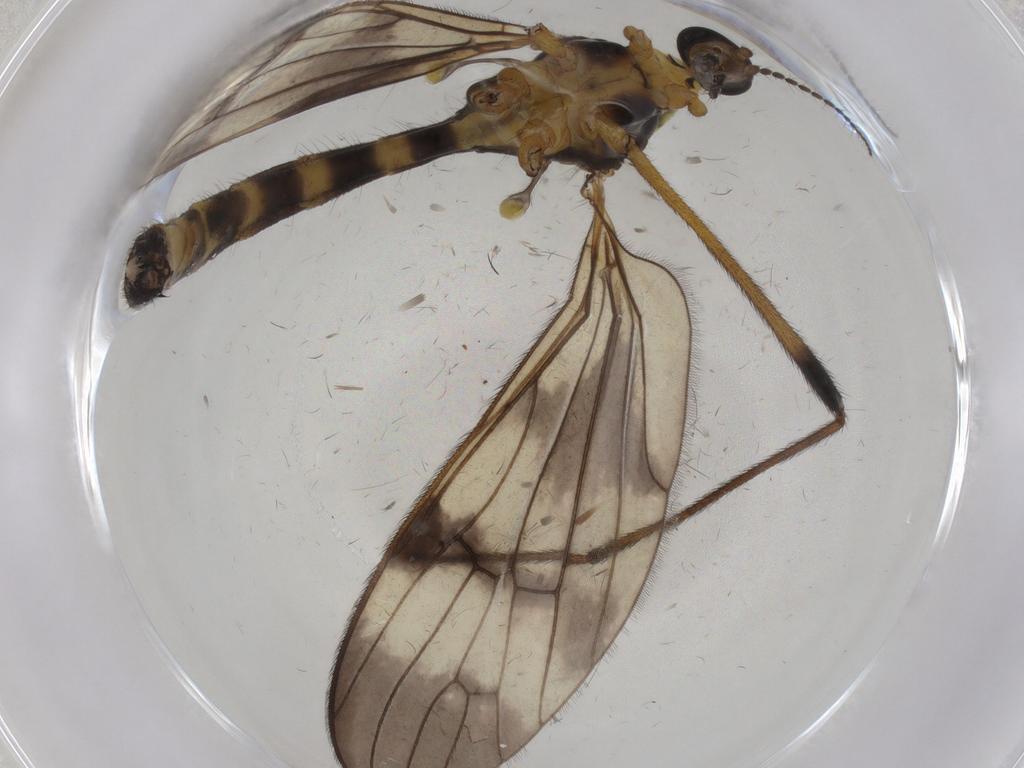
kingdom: Animalia
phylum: Arthropoda
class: Insecta
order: Diptera
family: Limoniidae
